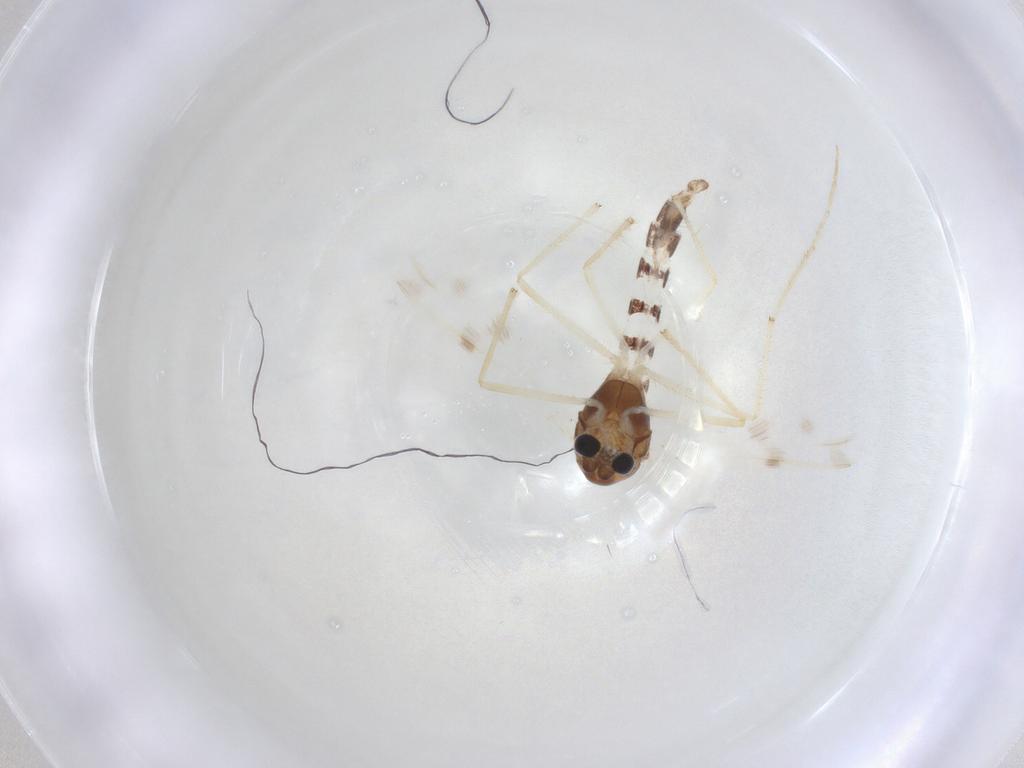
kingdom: Animalia
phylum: Arthropoda
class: Insecta
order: Diptera
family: Chironomidae
